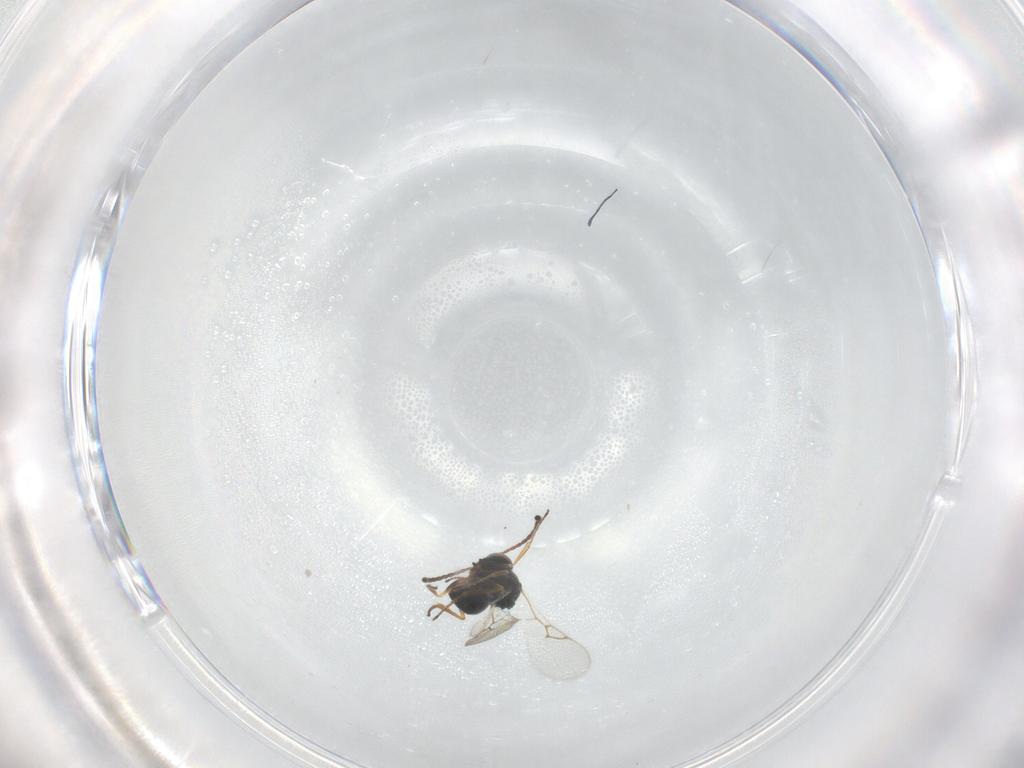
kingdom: Animalia
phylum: Arthropoda
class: Insecta
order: Hymenoptera
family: Figitidae
